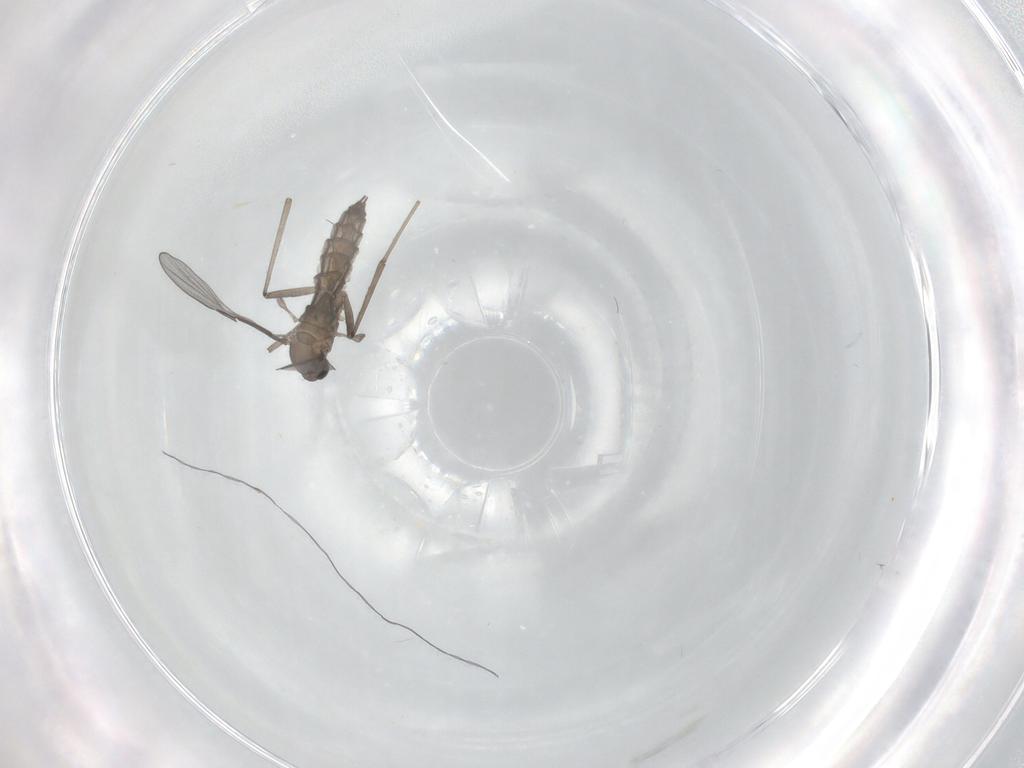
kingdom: Animalia
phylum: Arthropoda
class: Insecta
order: Diptera
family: Cecidomyiidae
